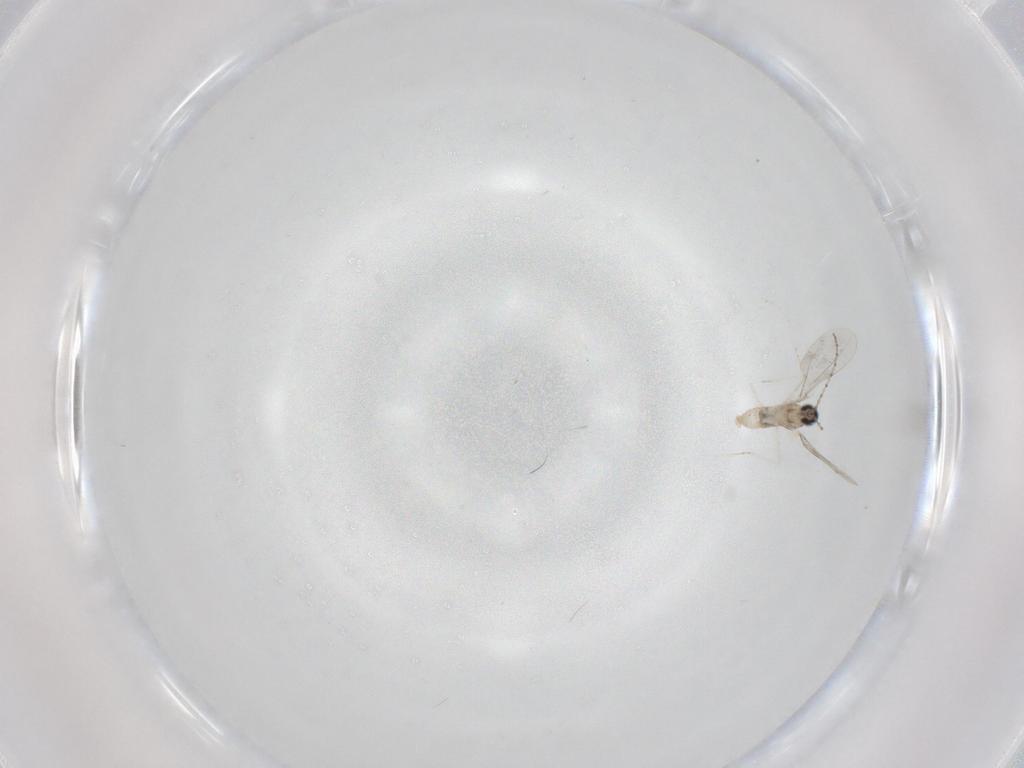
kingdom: Animalia
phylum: Arthropoda
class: Insecta
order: Diptera
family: Cecidomyiidae
